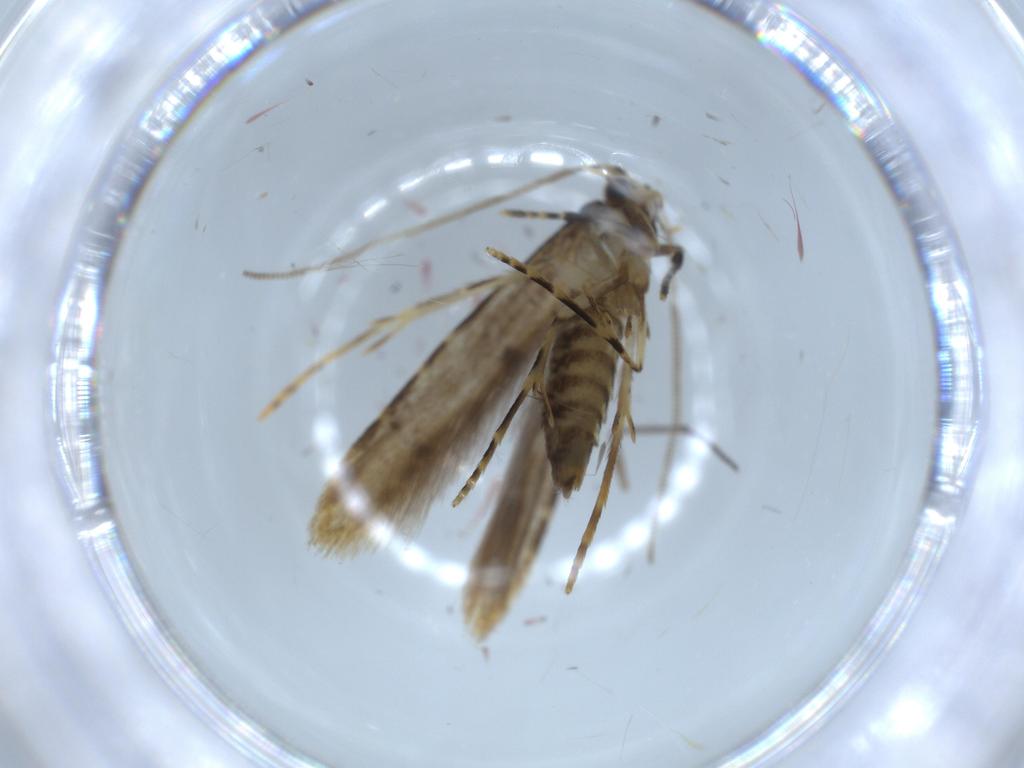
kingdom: Animalia
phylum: Arthropoda
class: Insecta
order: Lepidoptera
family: Tineidae
